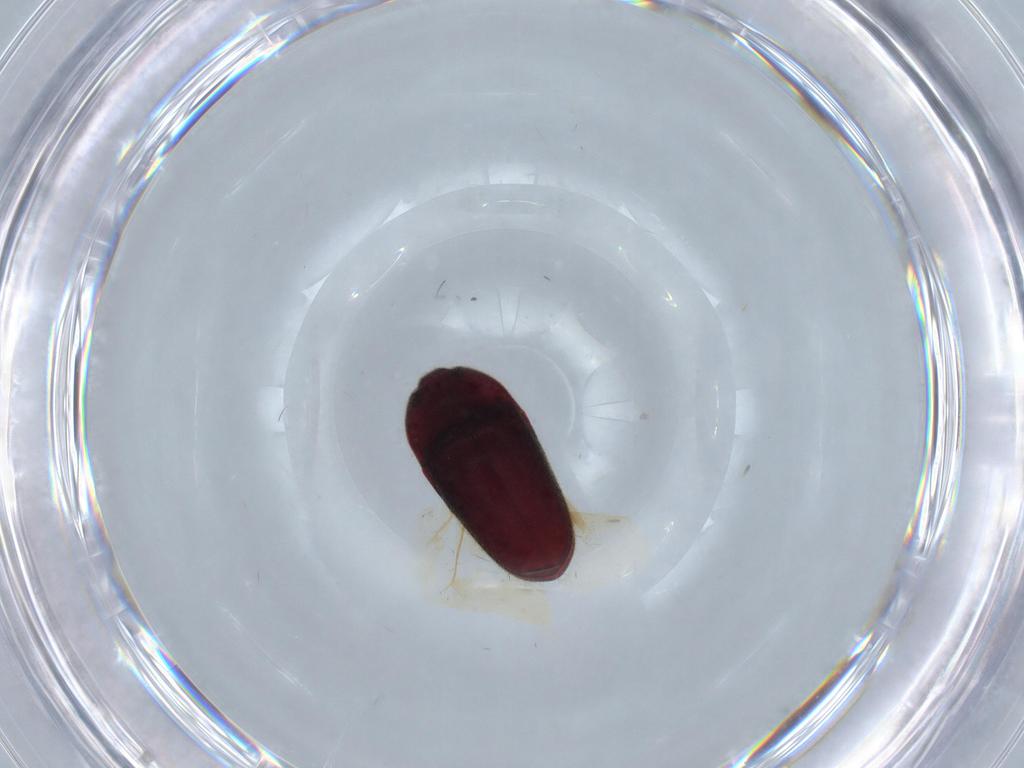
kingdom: Animalia
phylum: Arthropoda
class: Insecta
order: Coleoptera
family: Throscidae
